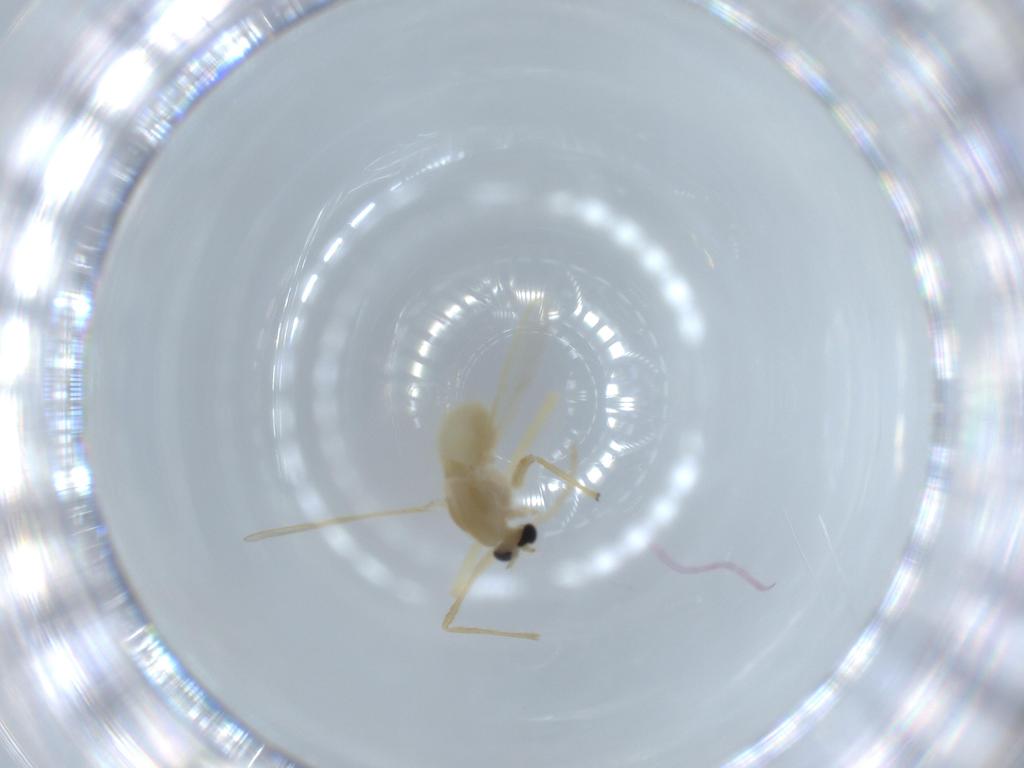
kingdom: Animalia
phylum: Arthropoda
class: Insecta
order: Diptera
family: Chironomidae
